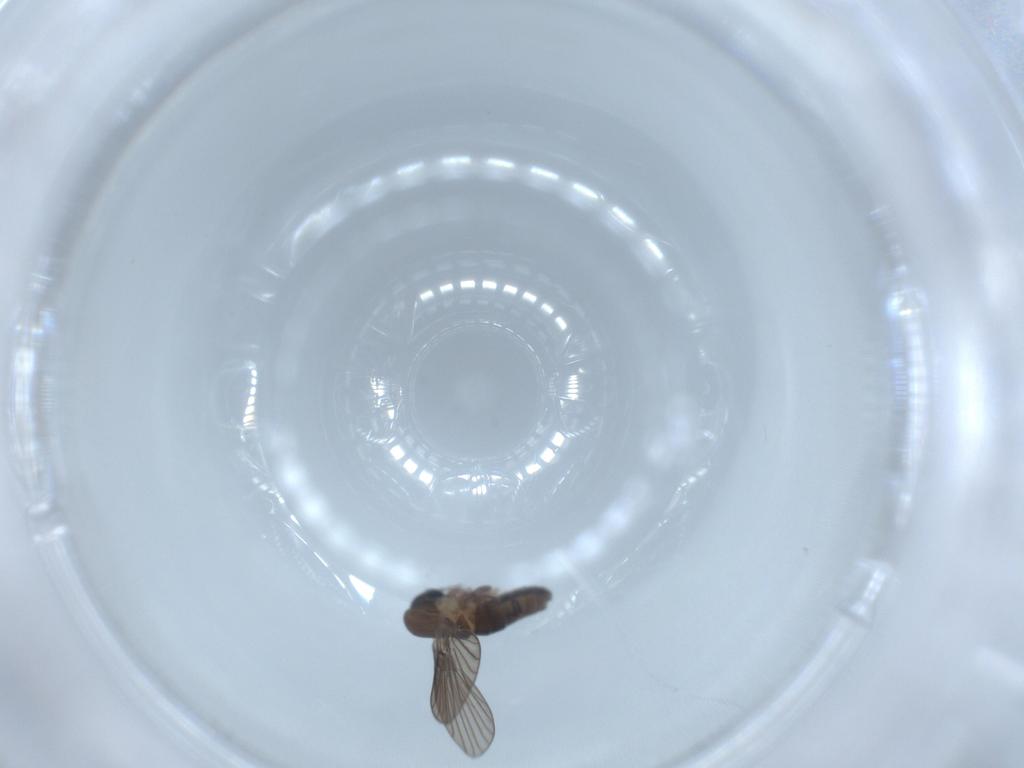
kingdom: Animalia
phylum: Arthropoda
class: Insecta
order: Diptera
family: Psychodidae
